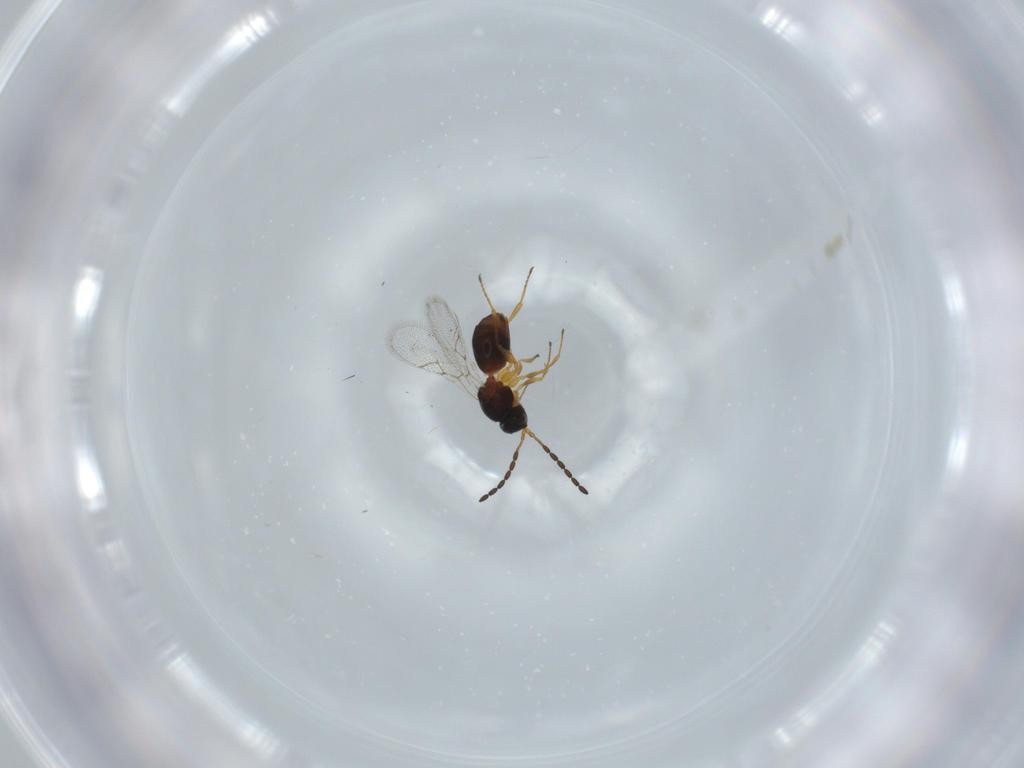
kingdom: Animalia
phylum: Arthropoda
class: Insecta
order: Hymenoptera
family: Figitidae
